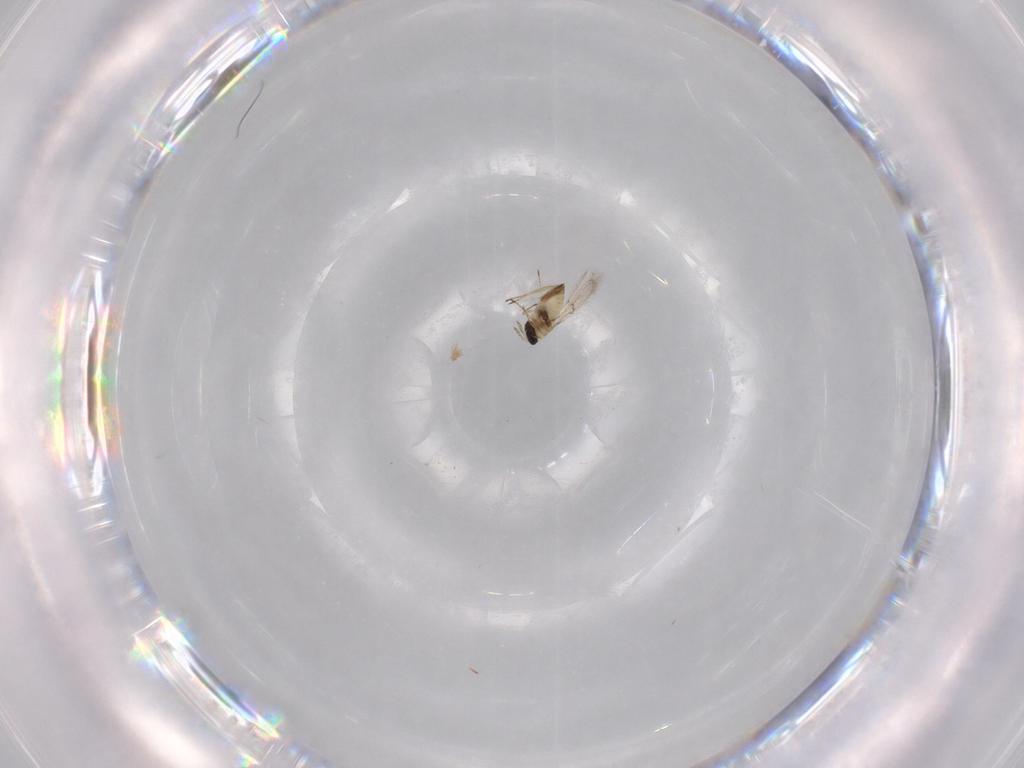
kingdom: Animalia
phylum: Arthropoda
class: Insecta
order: Hymenoptera
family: Trichogrammatidae
